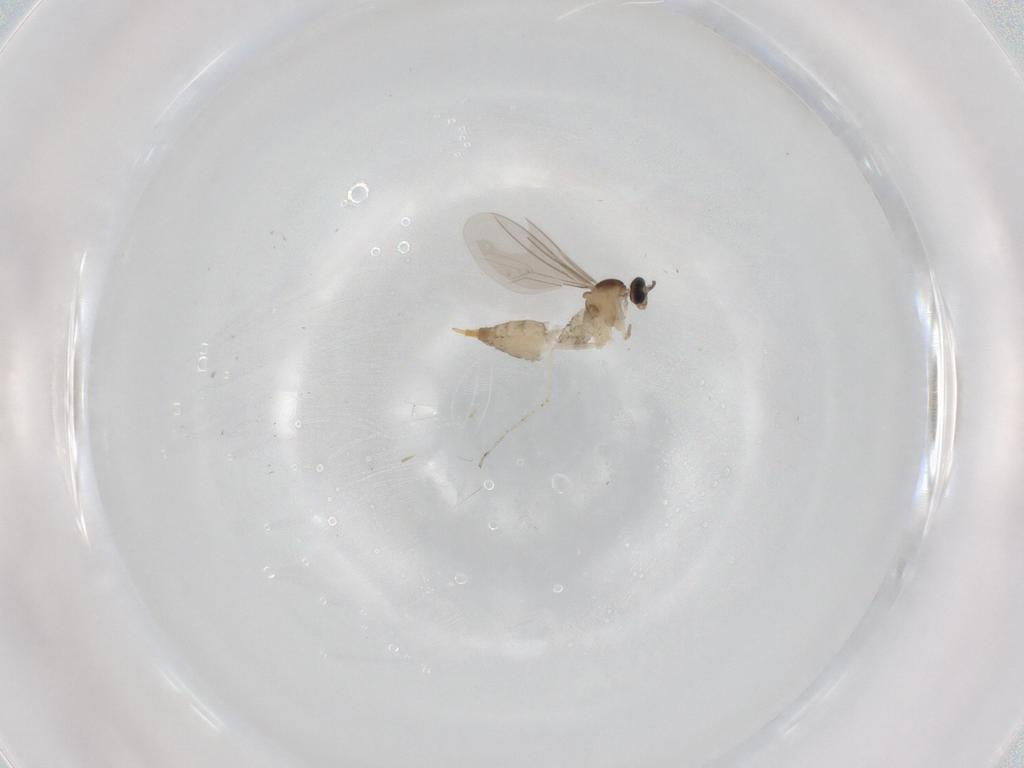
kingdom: Animalia
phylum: Arthropoda
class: Insecta
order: Diptera
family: Cecidomyiidae
